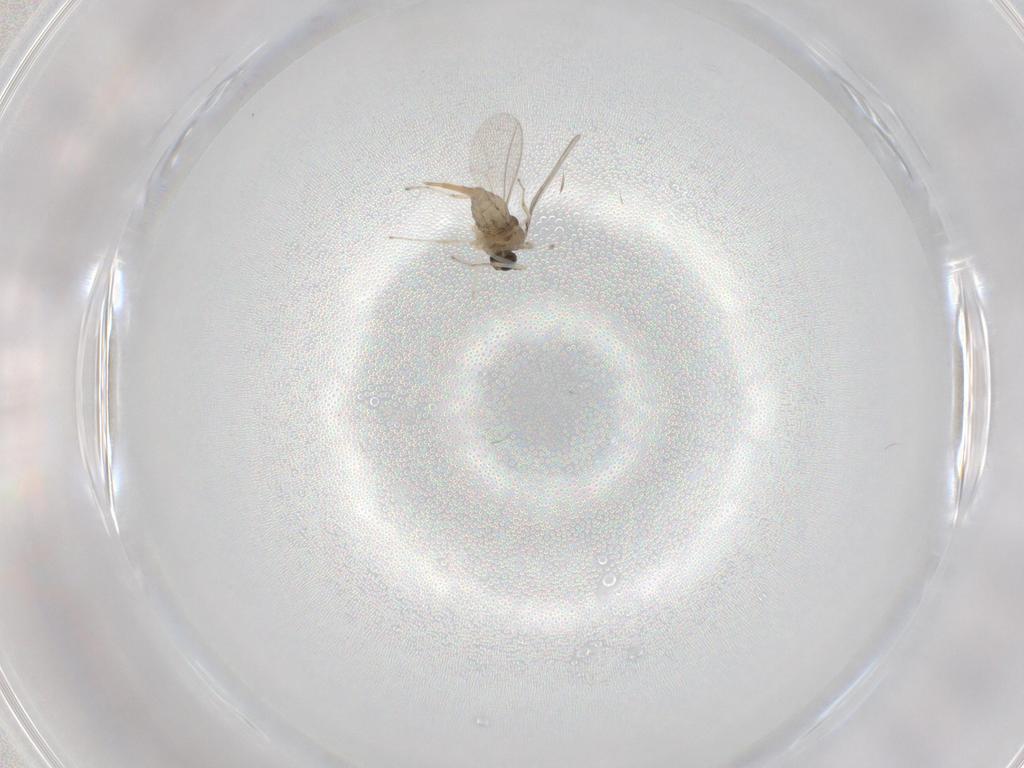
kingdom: Animalia
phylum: Arthropoda
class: Insecta
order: Diptera
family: Cecidomyiidae
